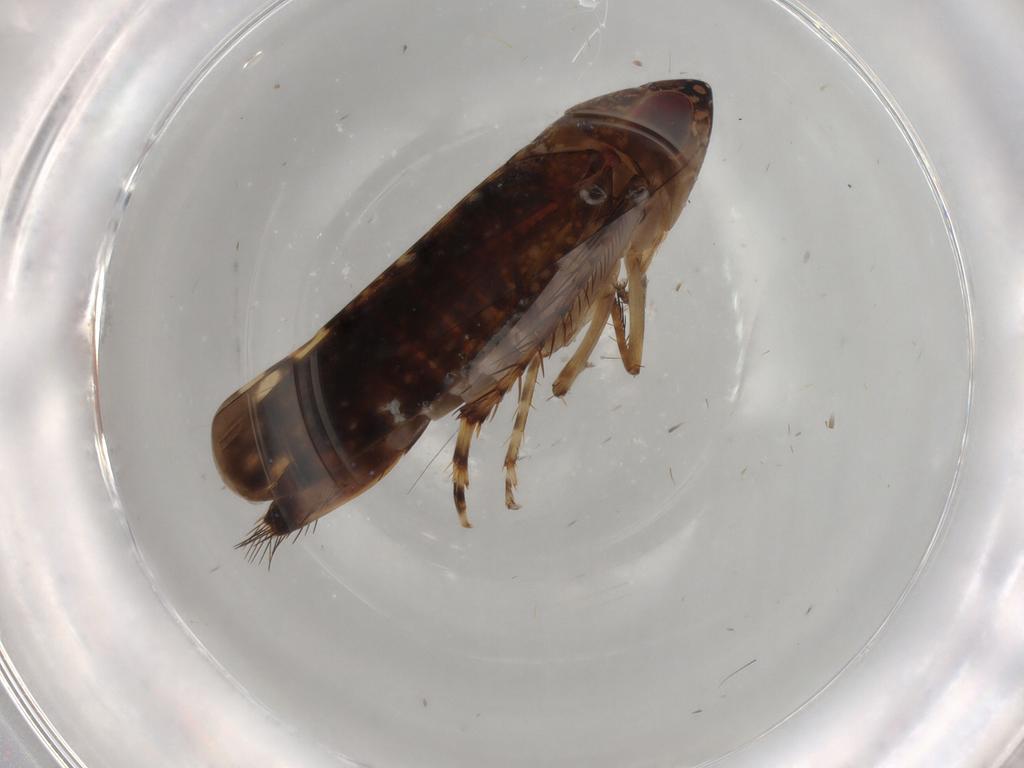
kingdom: Animalia
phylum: Arthropoda
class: Insecta
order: Hemiptera
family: Cicadellidae
